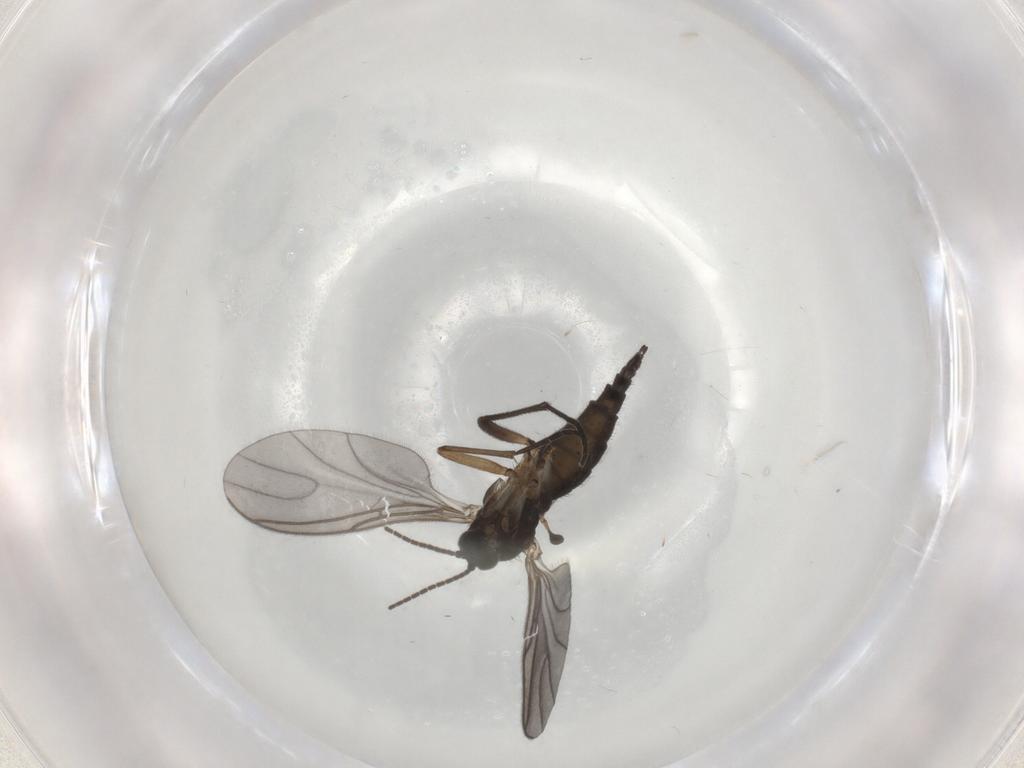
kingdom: Animalia
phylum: Arthropoda
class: Insecta
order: Diptera
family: Sciaridae
